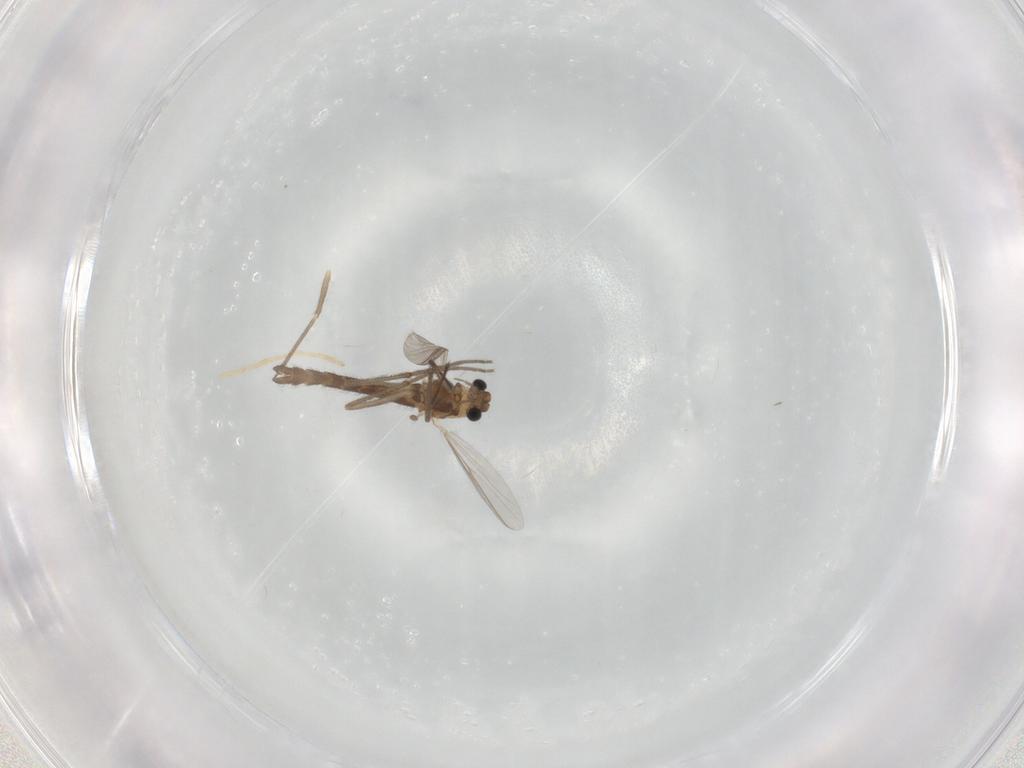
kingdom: Animalia
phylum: Arthropoda
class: Insecta
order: Diptera
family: Chironomidae
